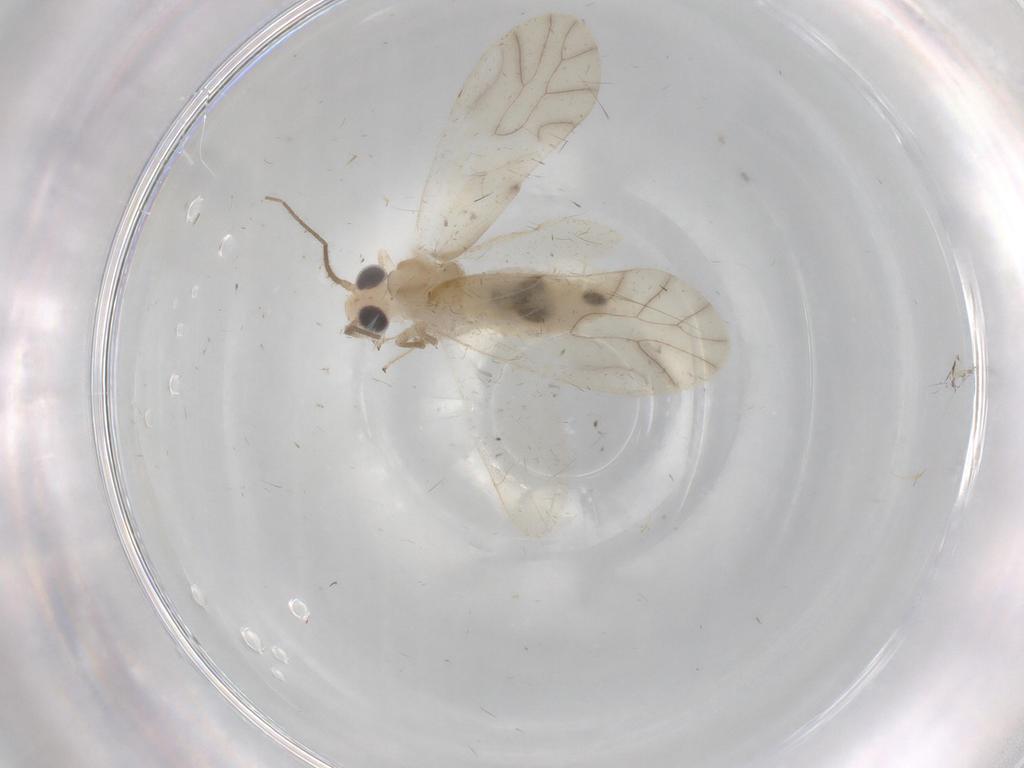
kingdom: Animalia
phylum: Arthropoda
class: Insecta
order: Psocodea
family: Caeciliusidae
